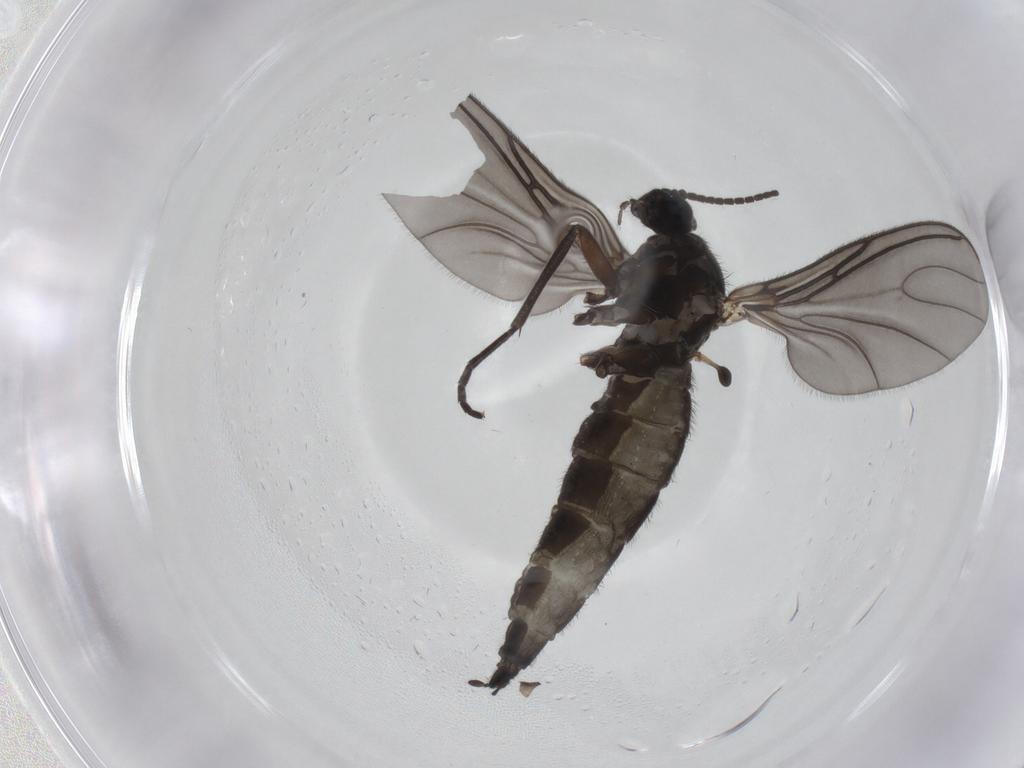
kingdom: Animalia
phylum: Arthropoda
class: Insecta
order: Diptera
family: Sciaridae
